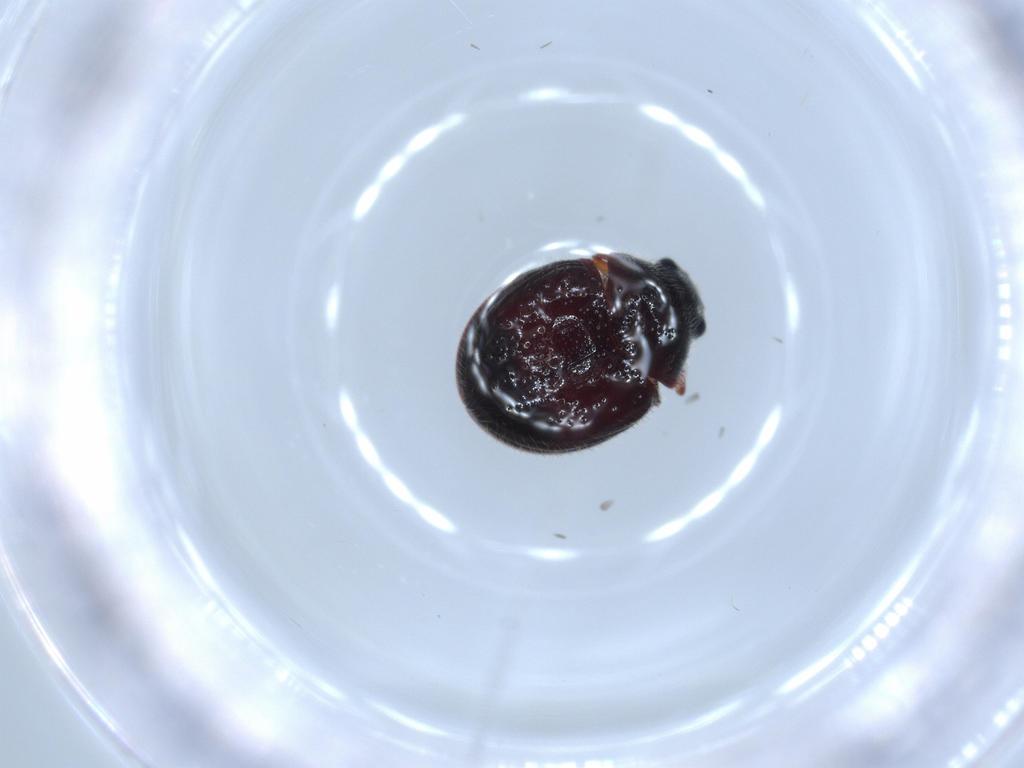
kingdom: Animalia
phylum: Arthropoda
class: Insecta
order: Coleoptera
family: Ptinidae
